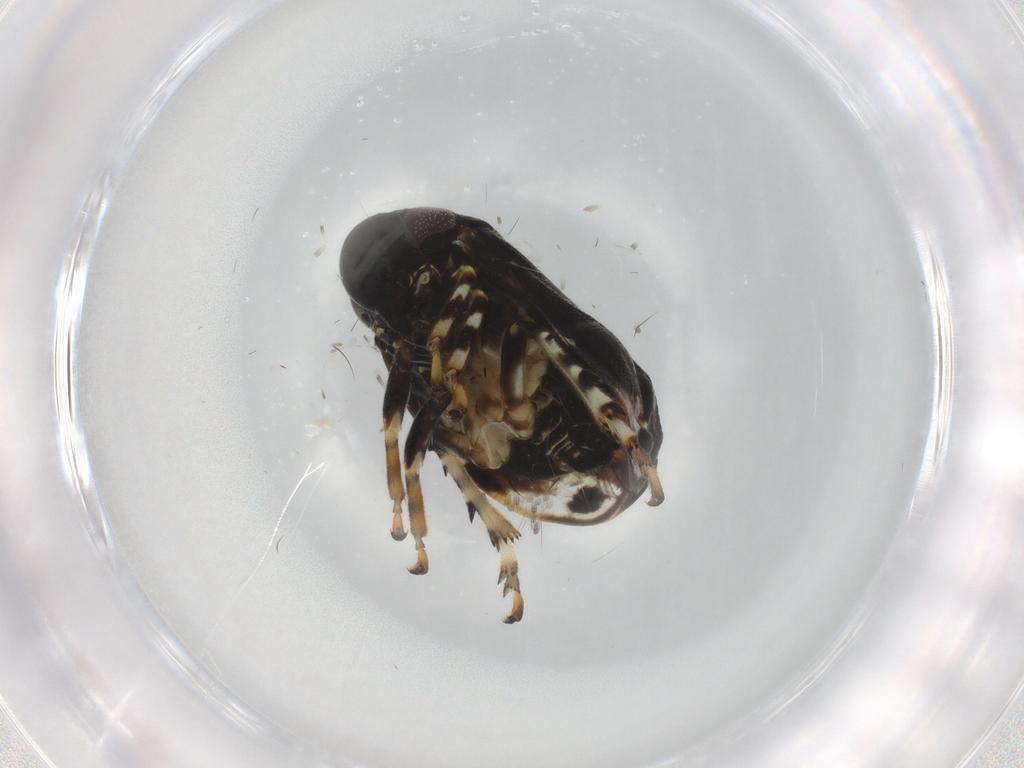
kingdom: Animalia
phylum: Arthropoda
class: Insecta
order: Hemiptera
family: Clastopteridae
